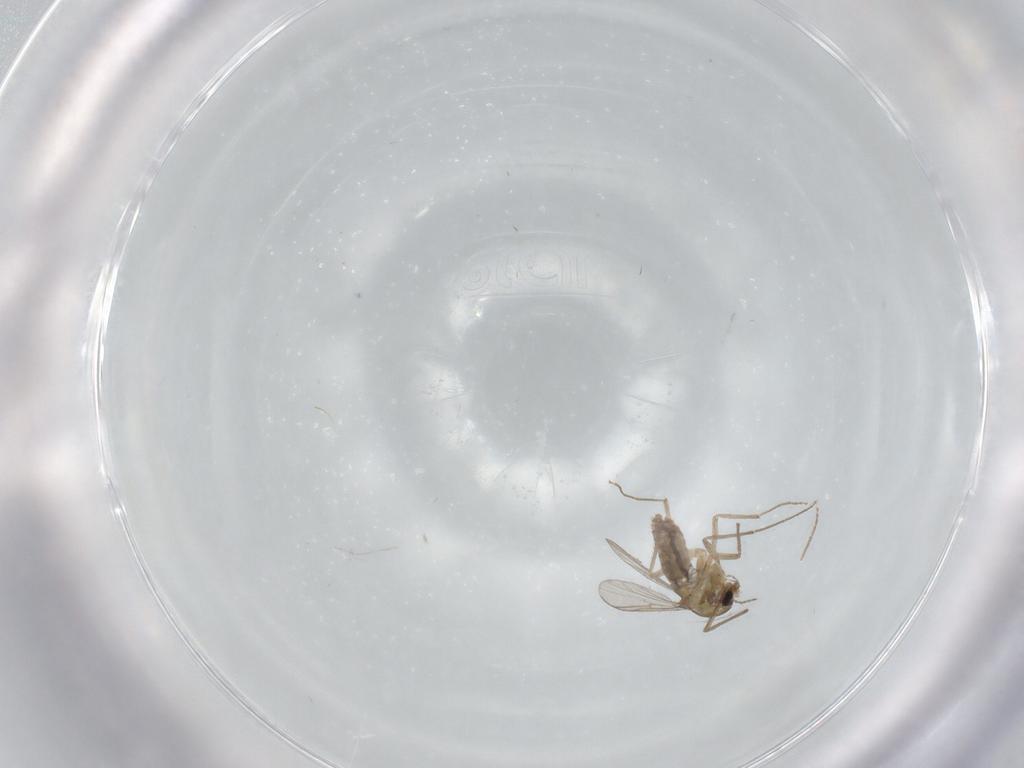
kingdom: Animalia
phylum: Arthropoda
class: Insecta
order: Diptera
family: Chironomidae
